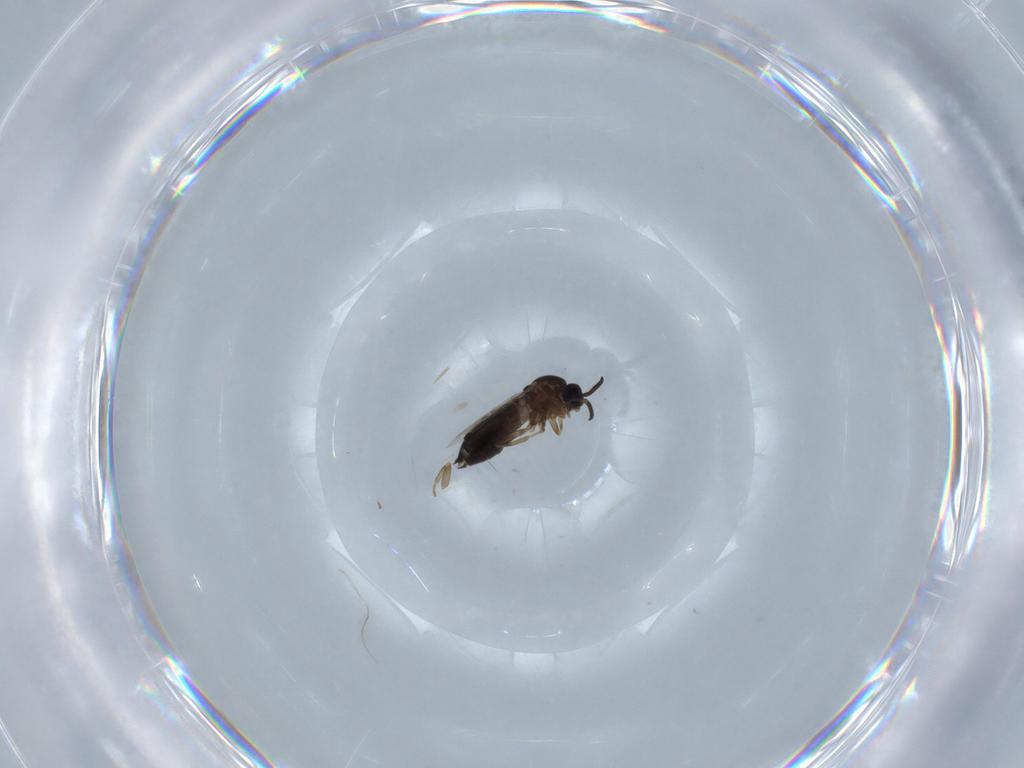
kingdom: Animalia
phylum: Arthropoda
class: Insecta
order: Diptera
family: Scatopsidae
